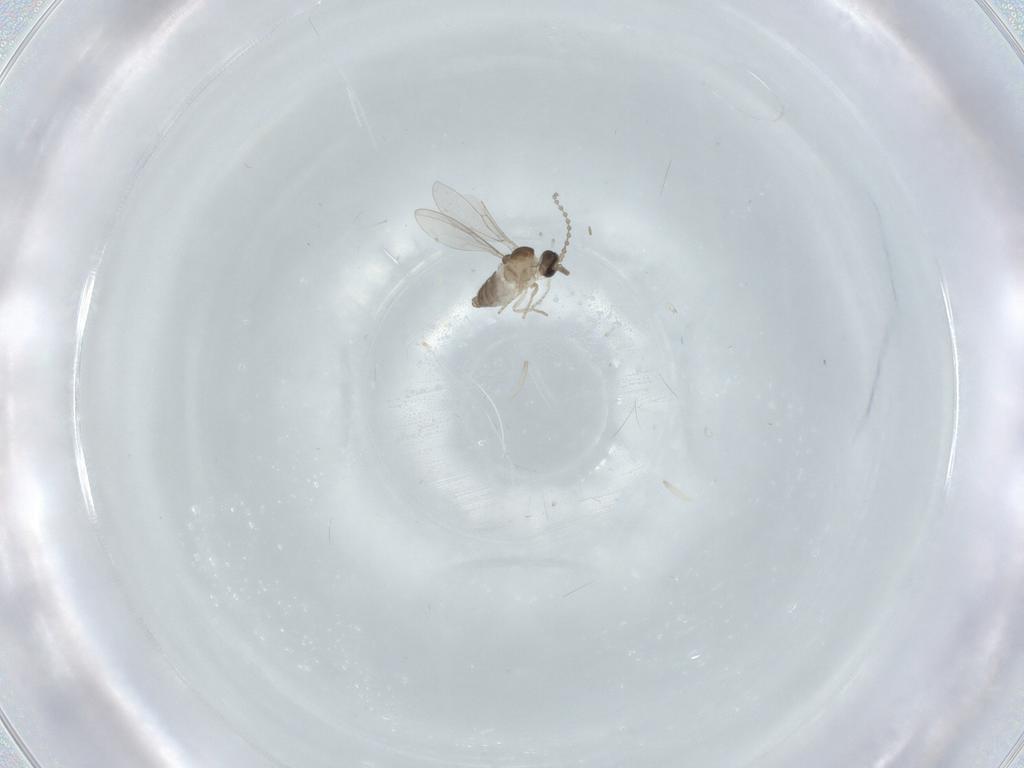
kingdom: Animalia
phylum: Arthropoda
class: Insecta
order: Diptera
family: Cecidomyiidae
